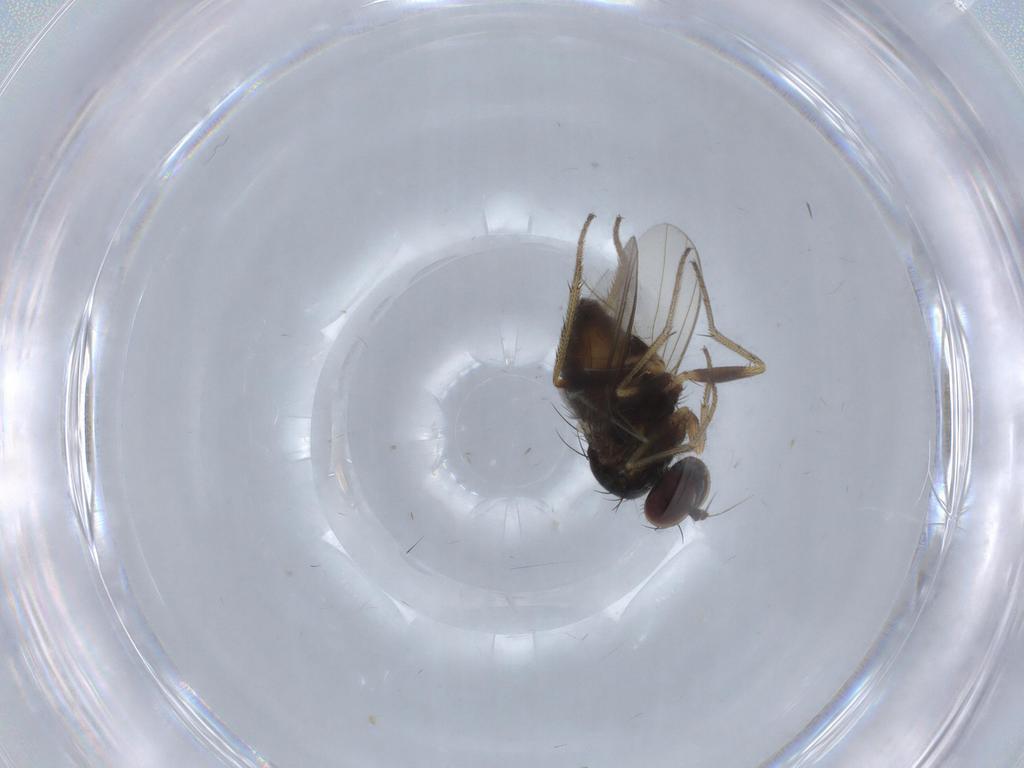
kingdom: Animalia
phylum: Arthropoda
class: Insecta
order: Diptera
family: Chironomidae
